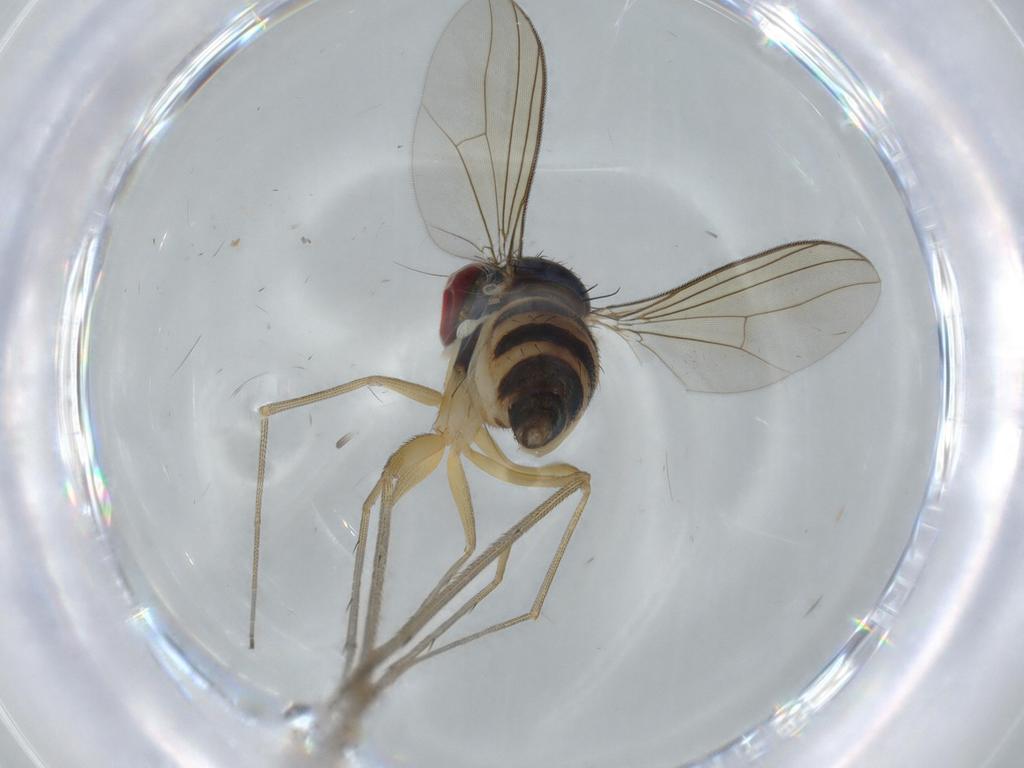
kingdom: Animalia
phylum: Arthropoda
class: Insecta
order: Diptera
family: Dolichopodidae
